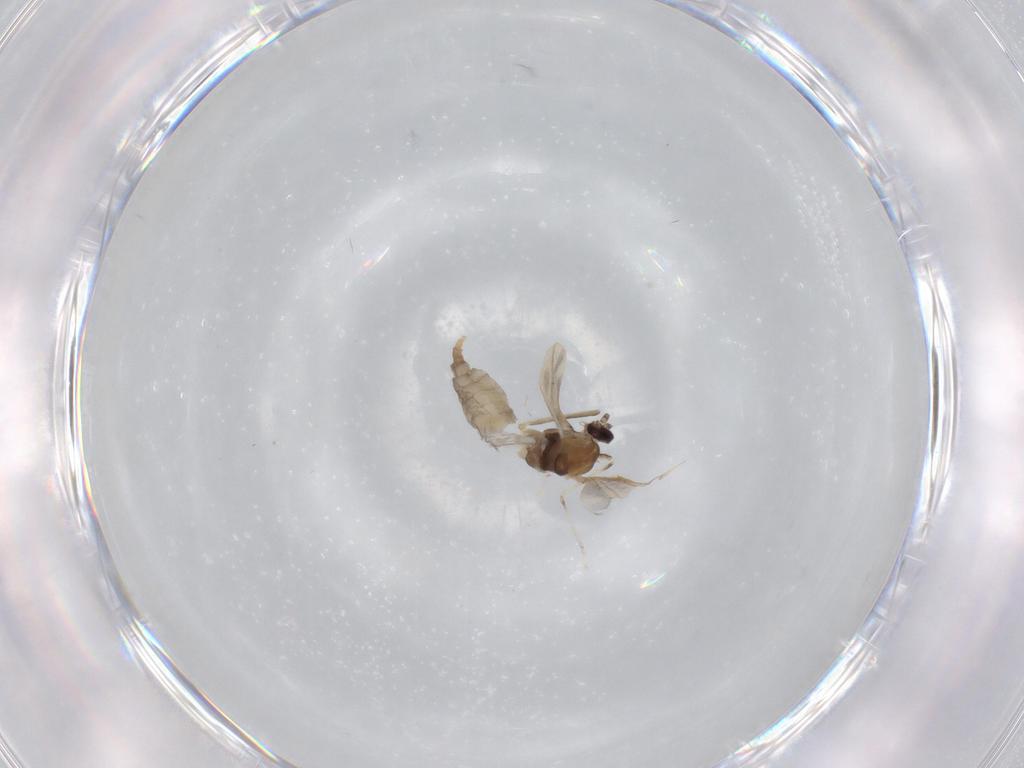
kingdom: Animalia
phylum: Arthropoda
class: Insecta
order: Diptera
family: Cecidomyiidae
